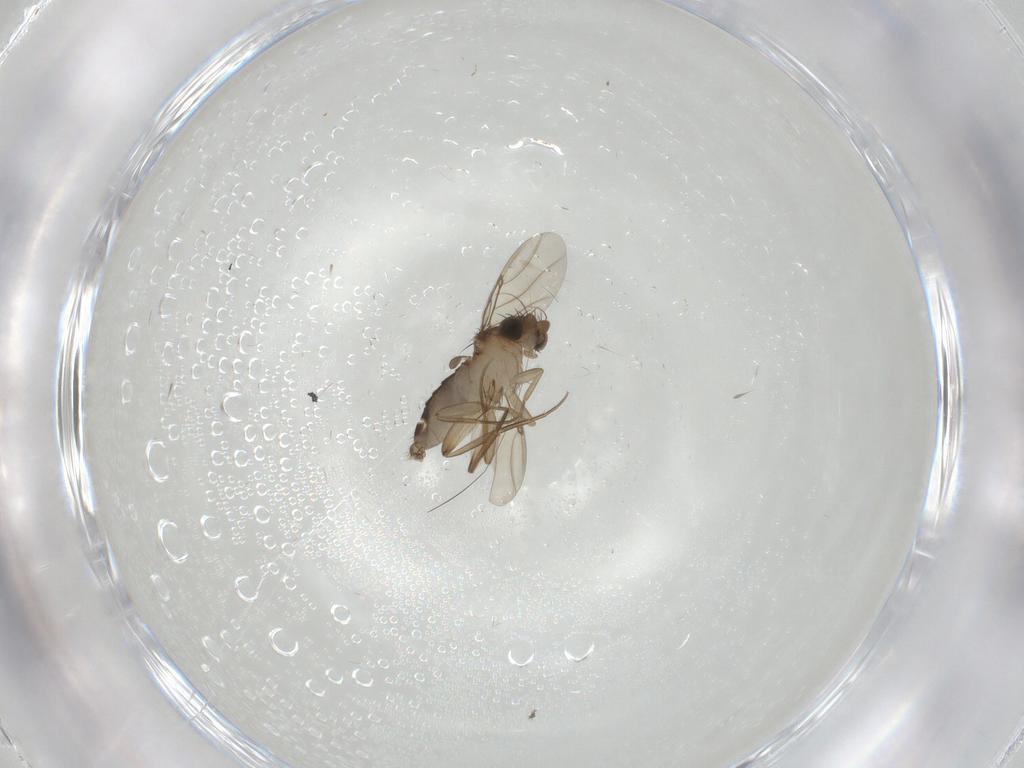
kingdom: Animalia
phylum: Arthropoda
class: Insecta
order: Diptera
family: Phoridae
